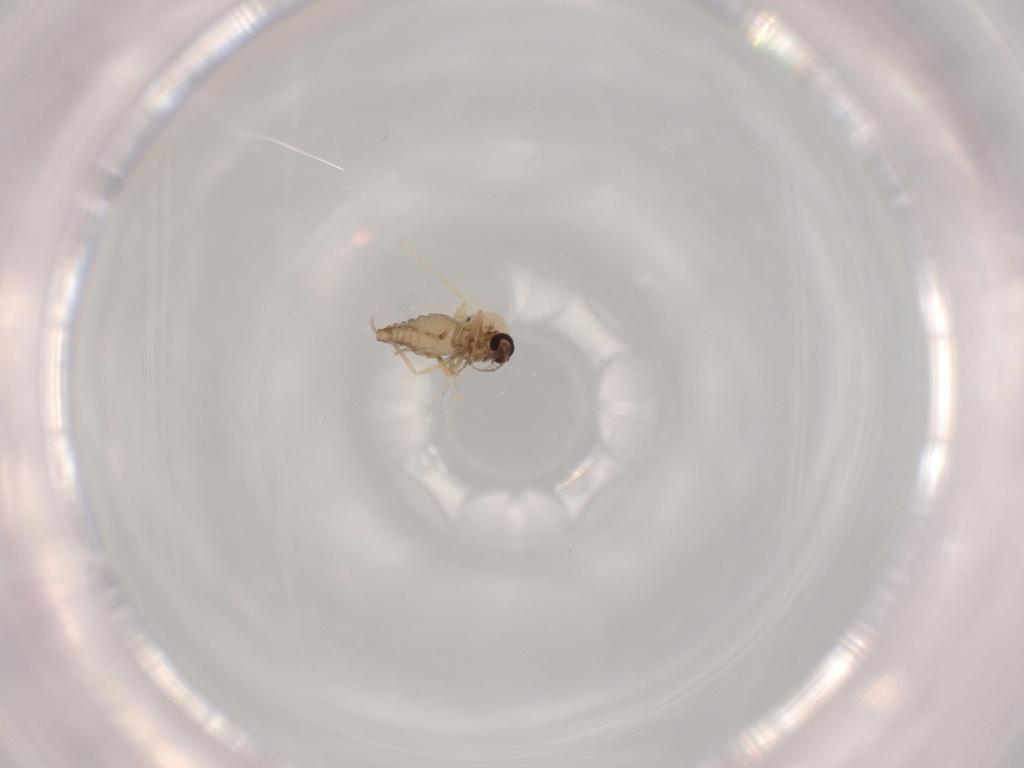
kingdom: Animalia
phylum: Arthropoda
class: Insecta
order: Diptera
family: Ceratopogonidae
